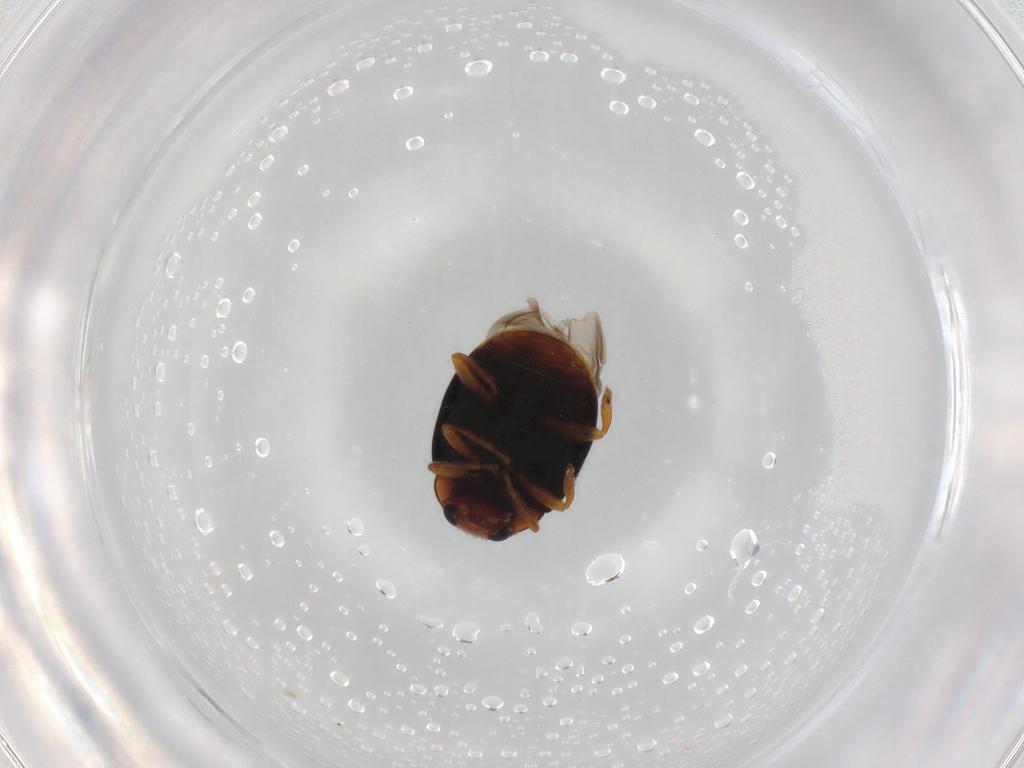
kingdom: Animalia
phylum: Arthropoda
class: Insecta
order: Coleoptera
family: Coccinellidae
